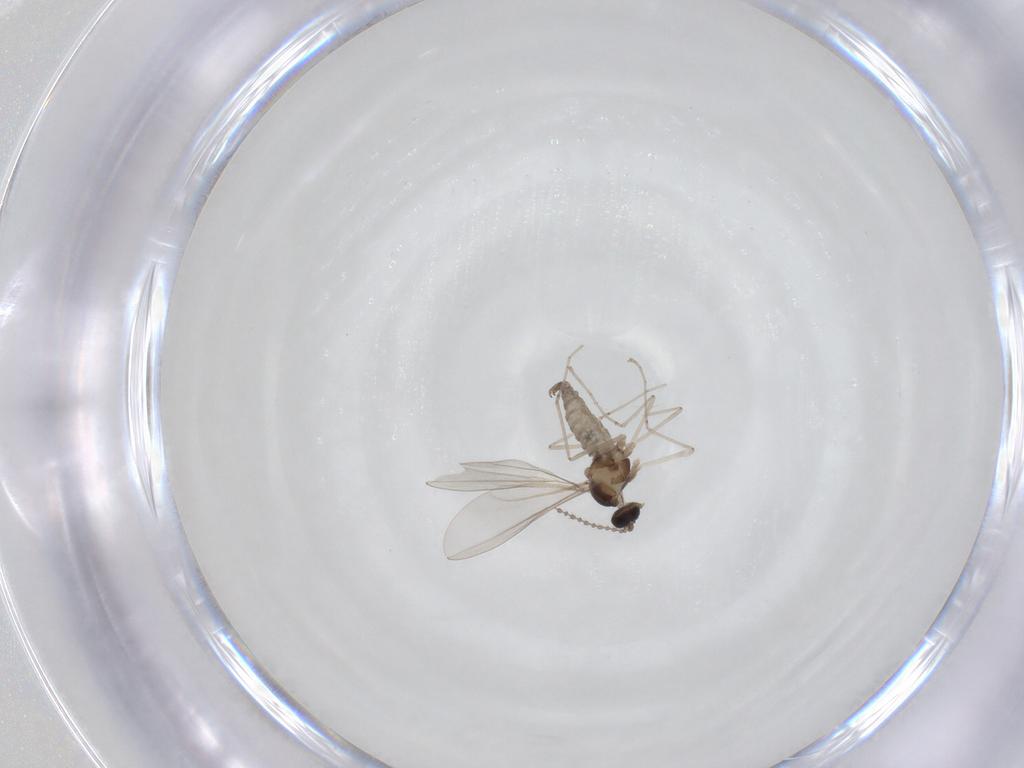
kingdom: Animalia
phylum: Arthropoda
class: Insecta
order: Diptera
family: Cecidomyiidae
